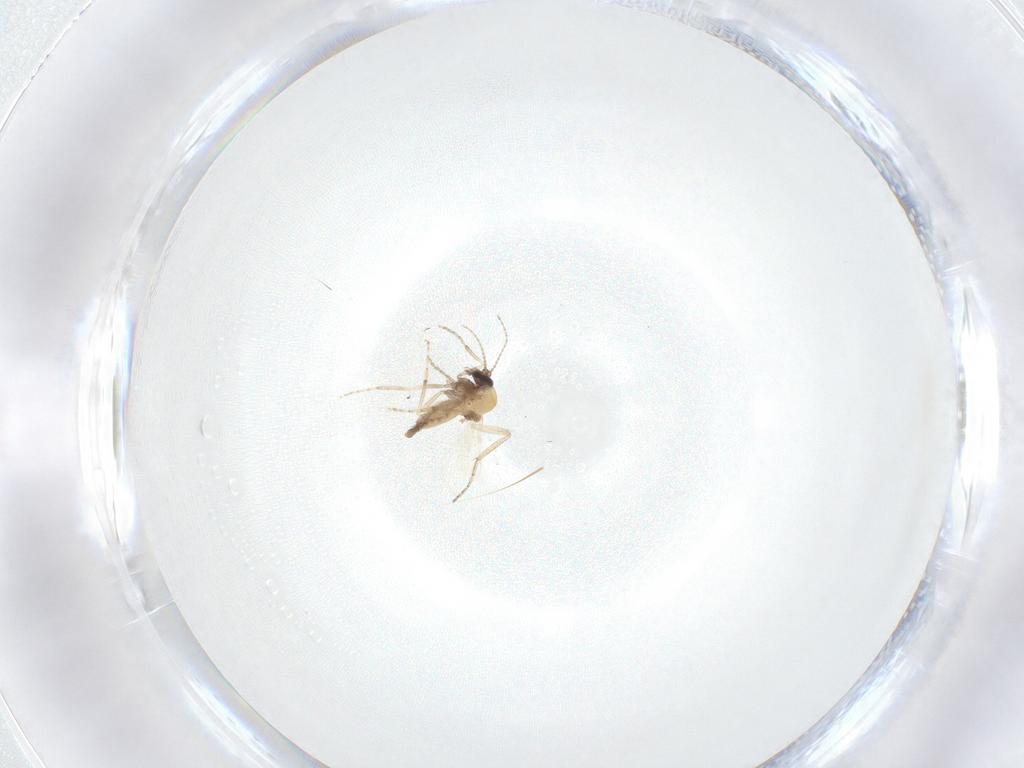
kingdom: Animalia
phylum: Arthropoda
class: Insecta
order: Diptera
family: Ceratopogonidae
